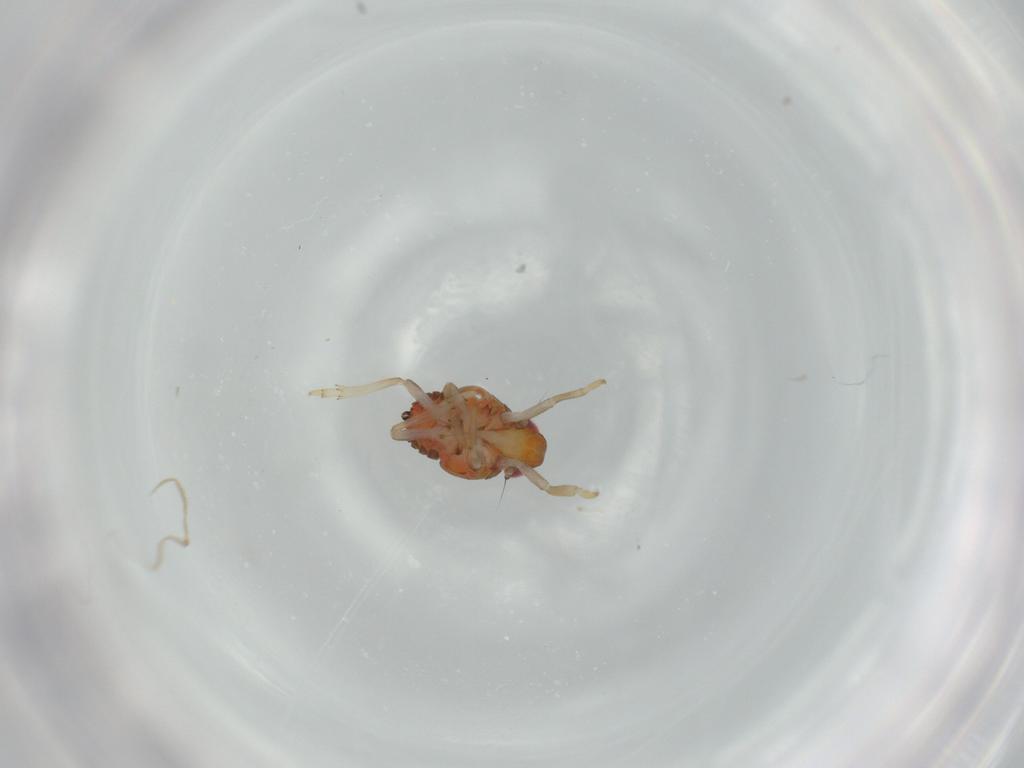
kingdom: Animalia
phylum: Arthropoda
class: Insecta
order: Hemiptera
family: Issidae
